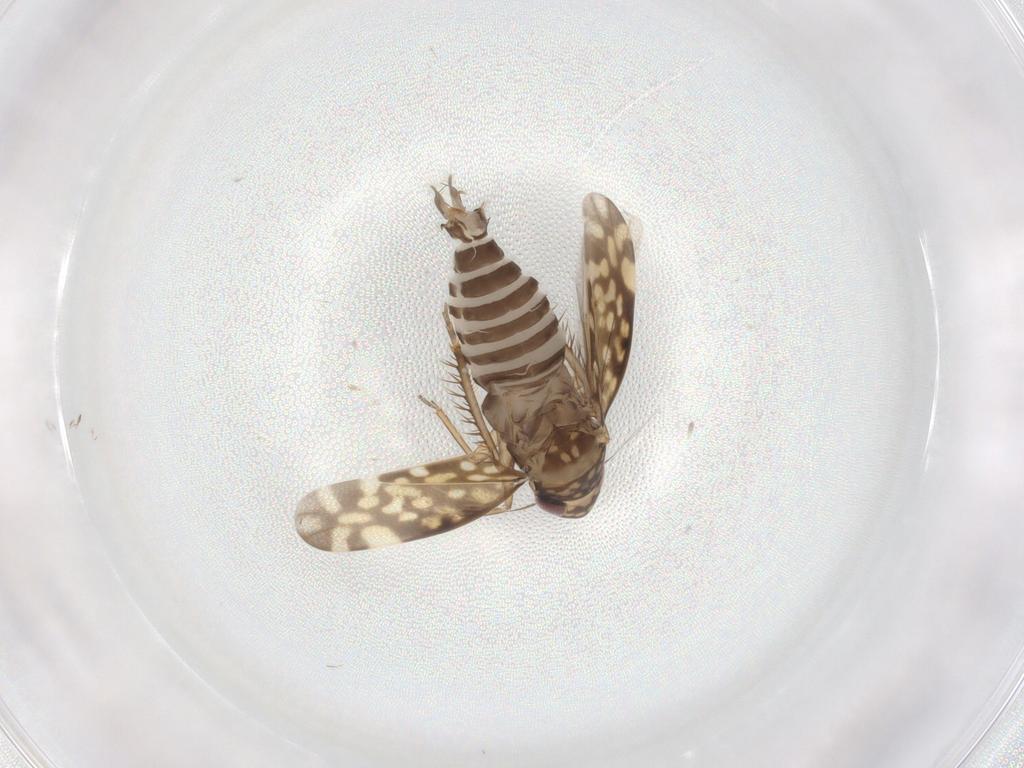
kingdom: Animalia
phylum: Arthropoda
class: Insecta
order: Hemiptera
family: Cicadellidae
